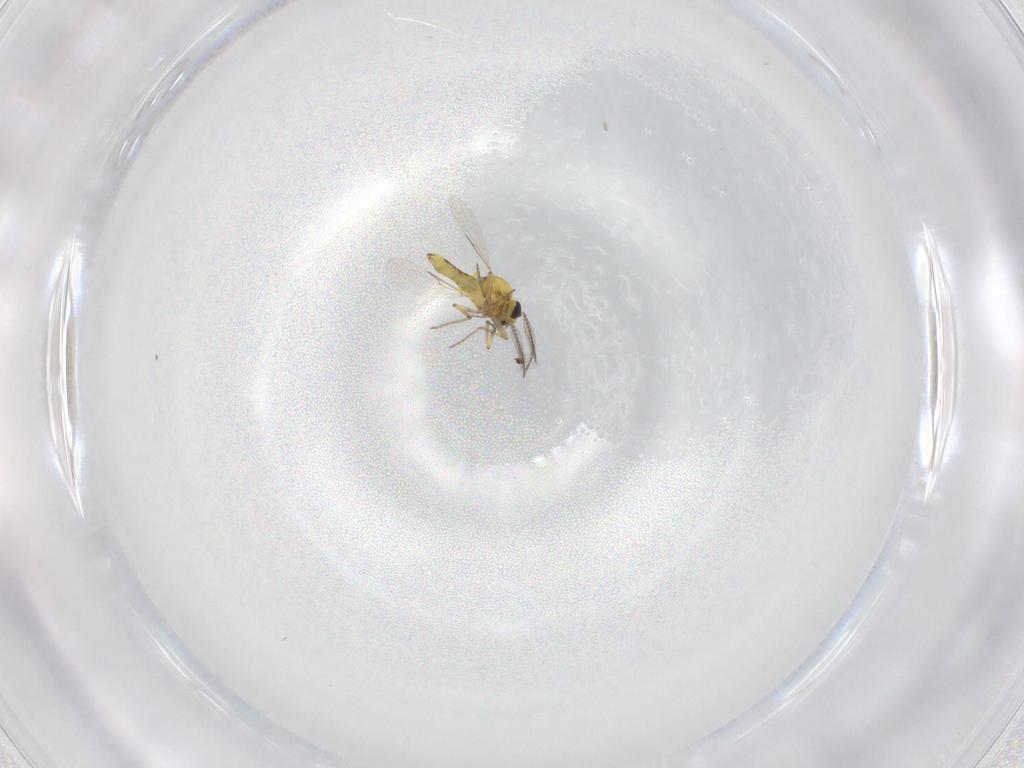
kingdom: Animalia
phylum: Arthropoda
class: Insecta
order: Diptera
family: Ceratopogonidae
